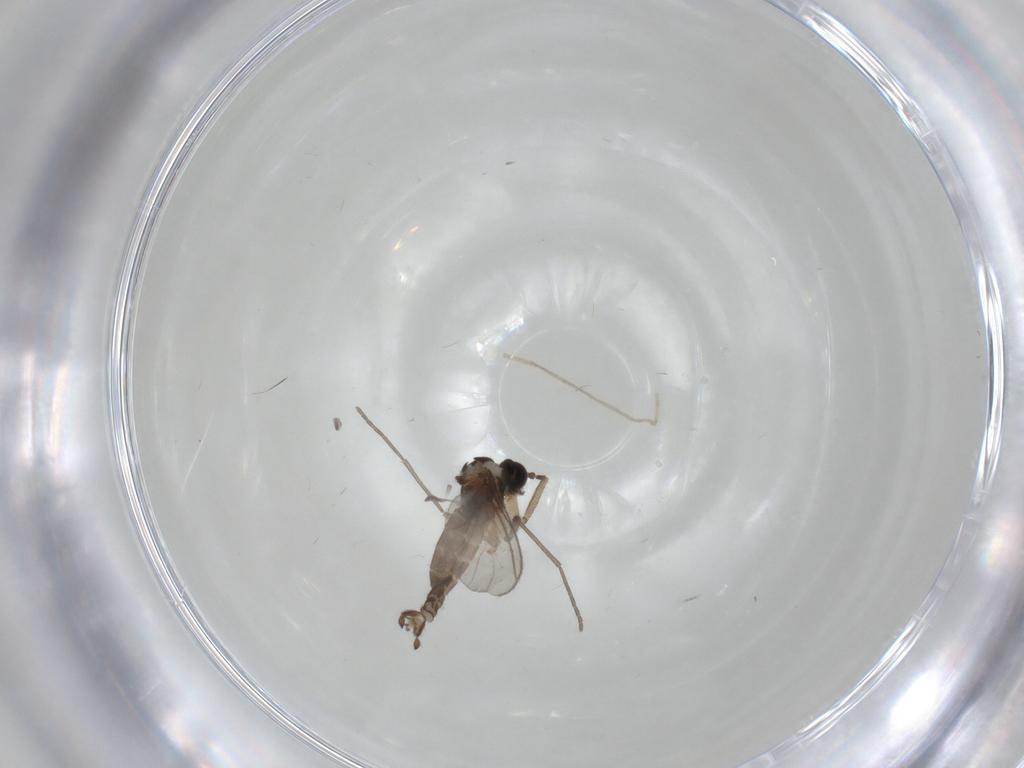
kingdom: Animalia
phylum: Arthropoda
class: Insecta
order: Diptera
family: Sciaridae
